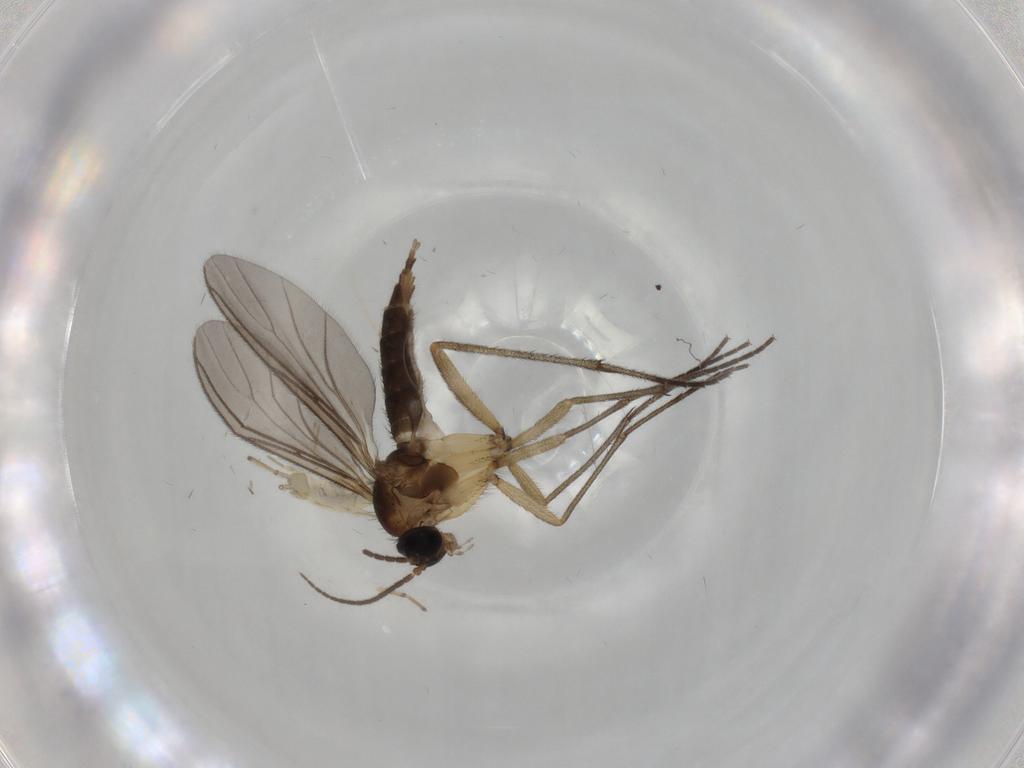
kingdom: Animalia
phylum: Arthropoda
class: Insecta
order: Diptera
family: Sciaridae
